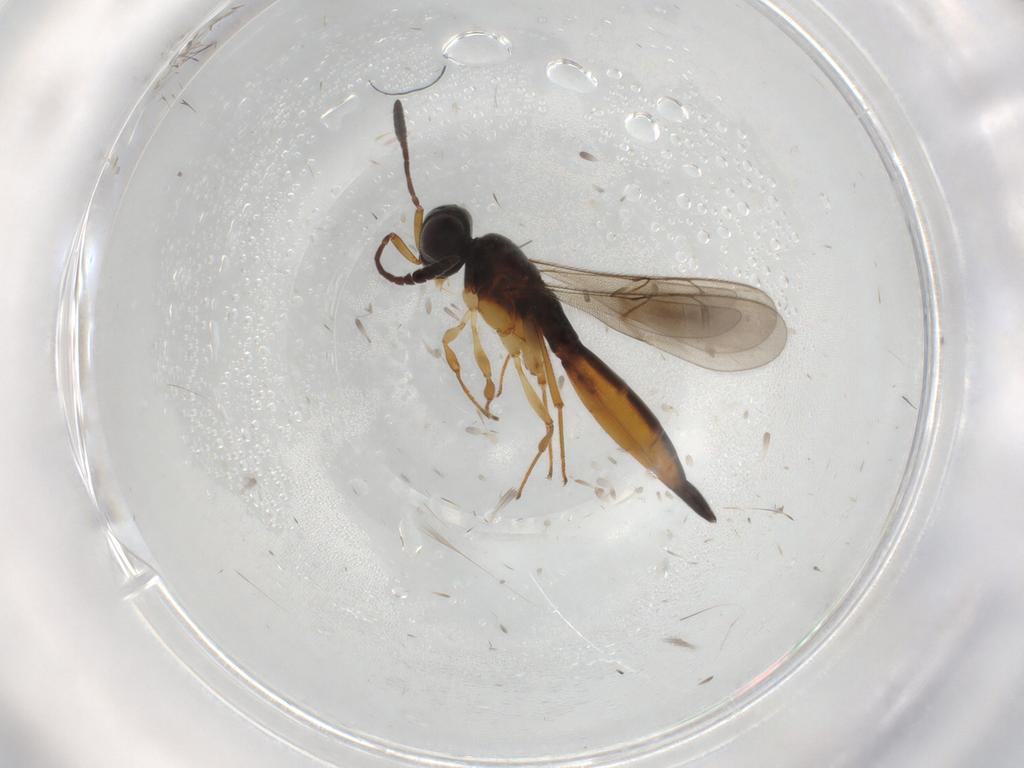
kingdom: Animalia
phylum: Arthropoda
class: Insecta
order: Hymenoptera
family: Scelionidae
